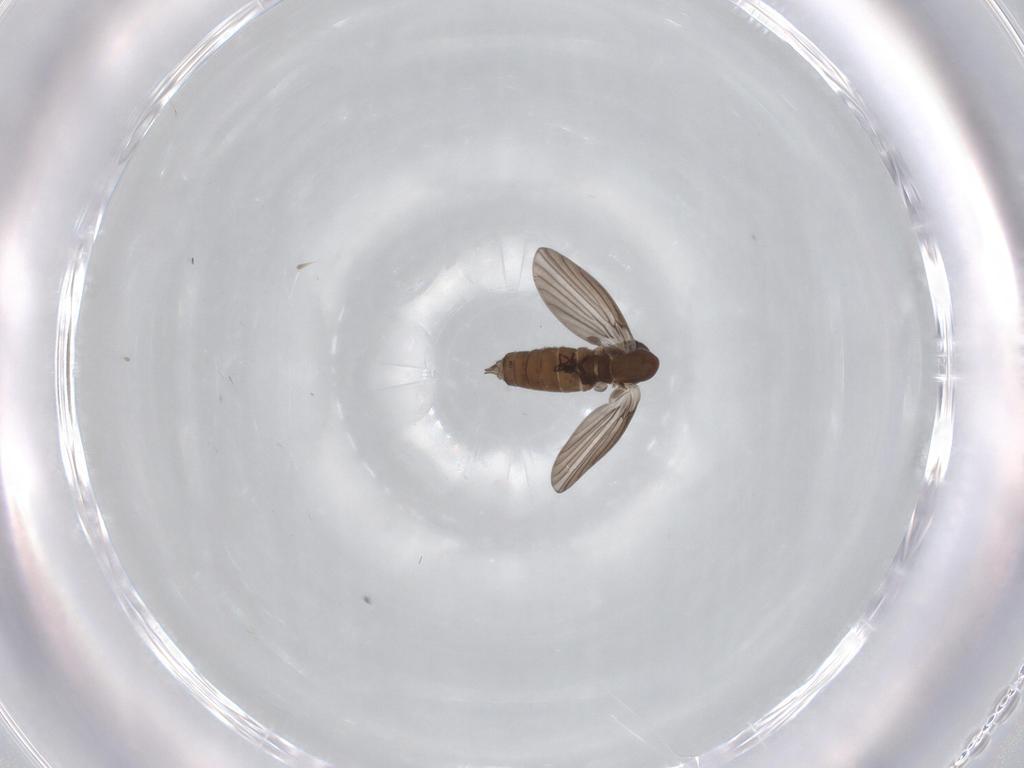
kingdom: Animalia
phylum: Arthropoda
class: Insecta
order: Diptera
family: Psychodidae
